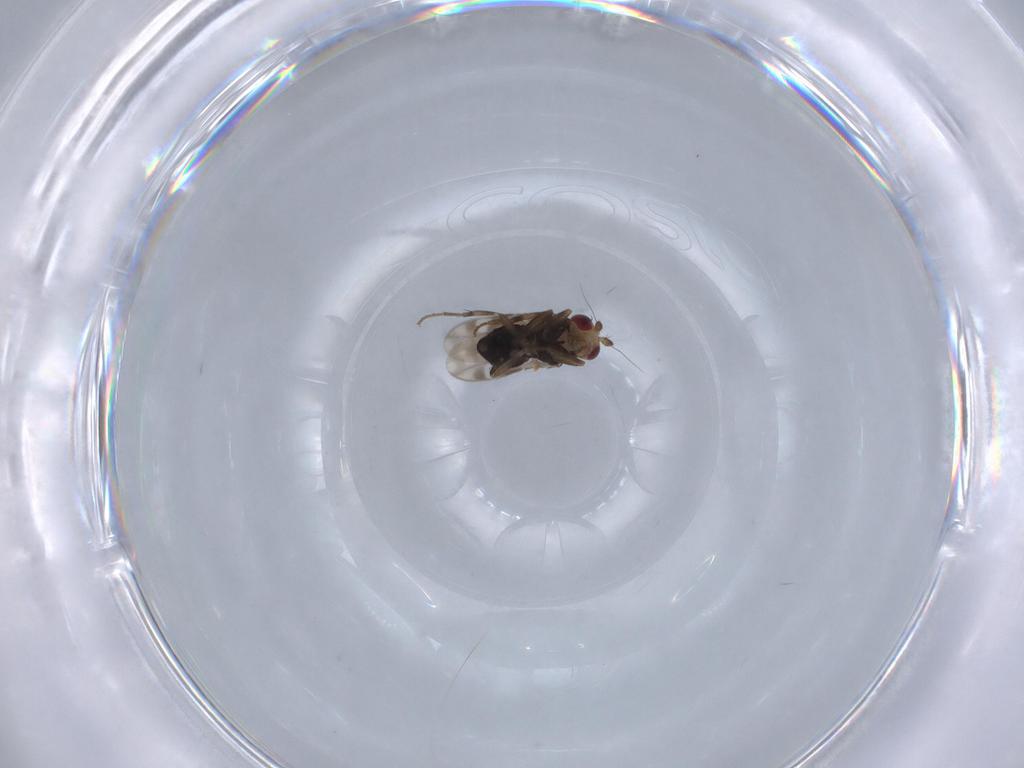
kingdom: Animalia
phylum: Arthropoda
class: Insecta
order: Diptera
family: Sphaeroceridae
